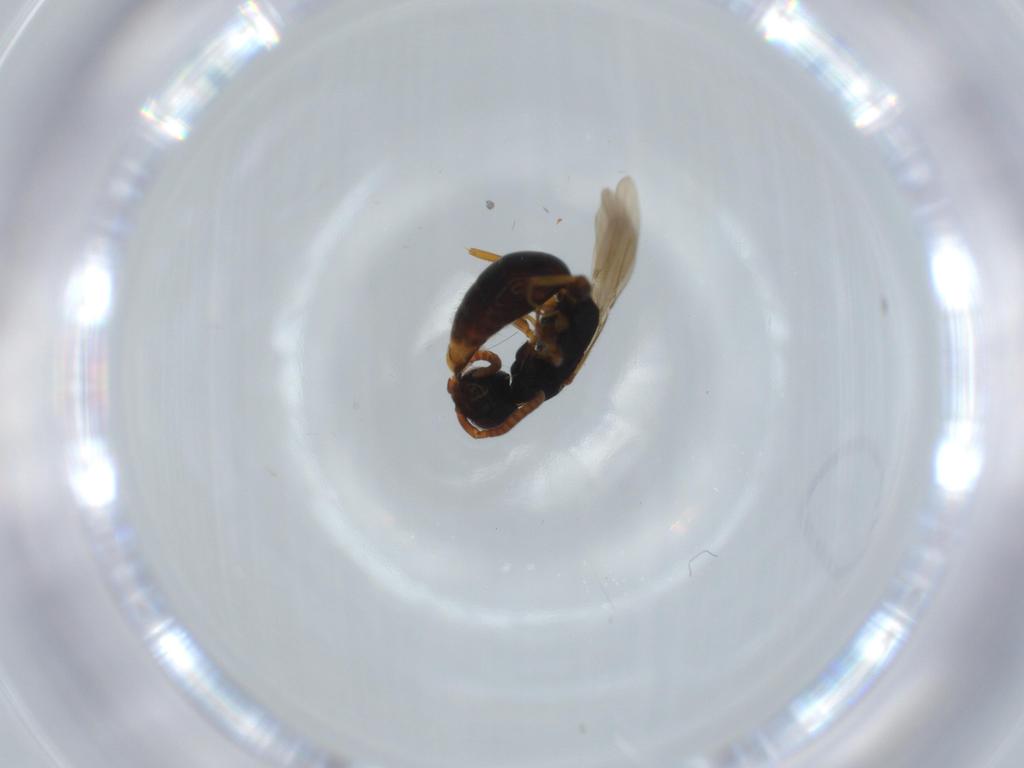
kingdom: Animalia
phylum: Arthropoda
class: Insecta
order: Hymenoptera
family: Bethylidae
